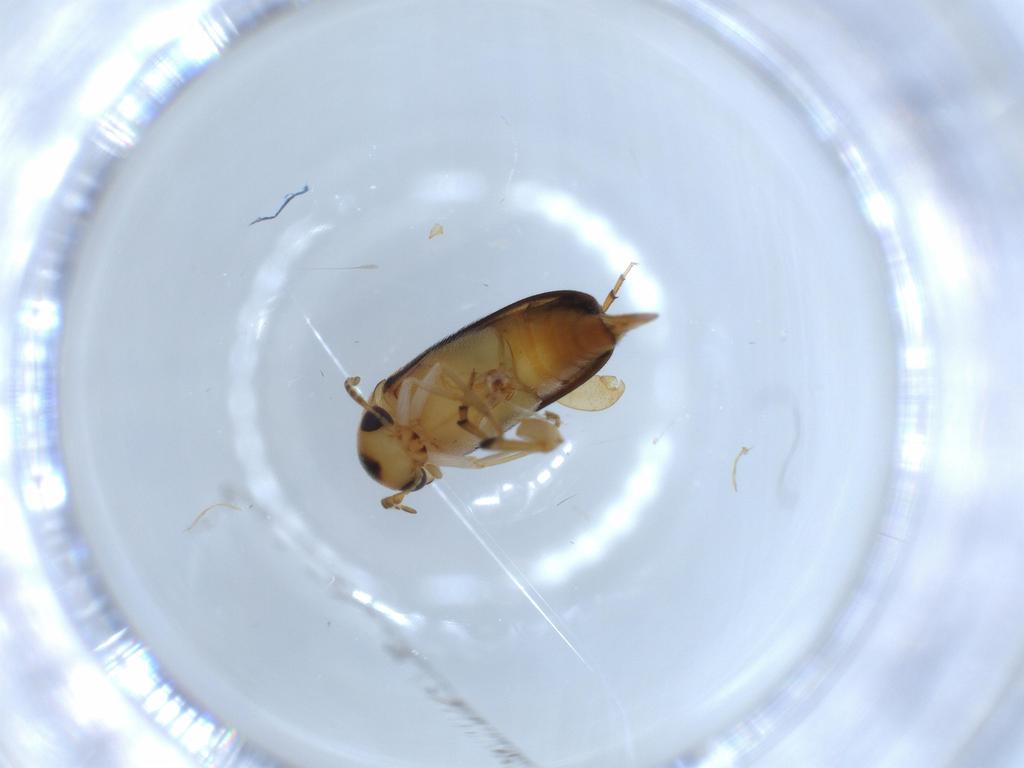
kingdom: Animalia
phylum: Arthropoda
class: Insecta
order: Coleoptera
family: Mordellidae
